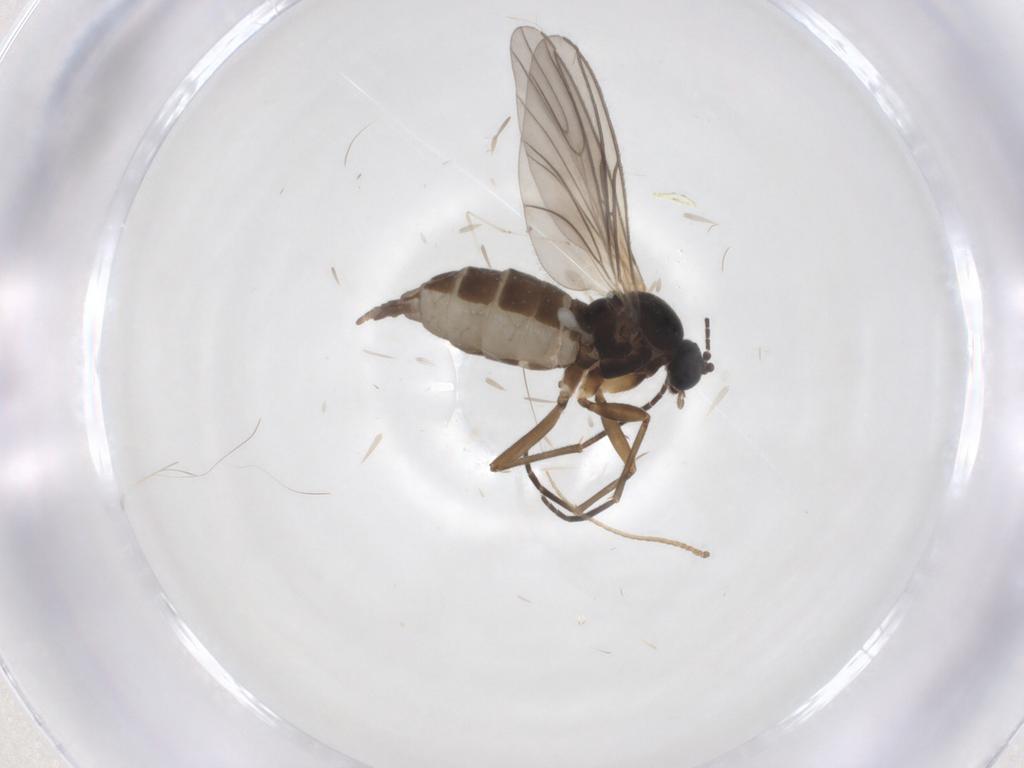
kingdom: Animalia
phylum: Arthropoda
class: Insecta
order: Diptera
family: Sciaridae
